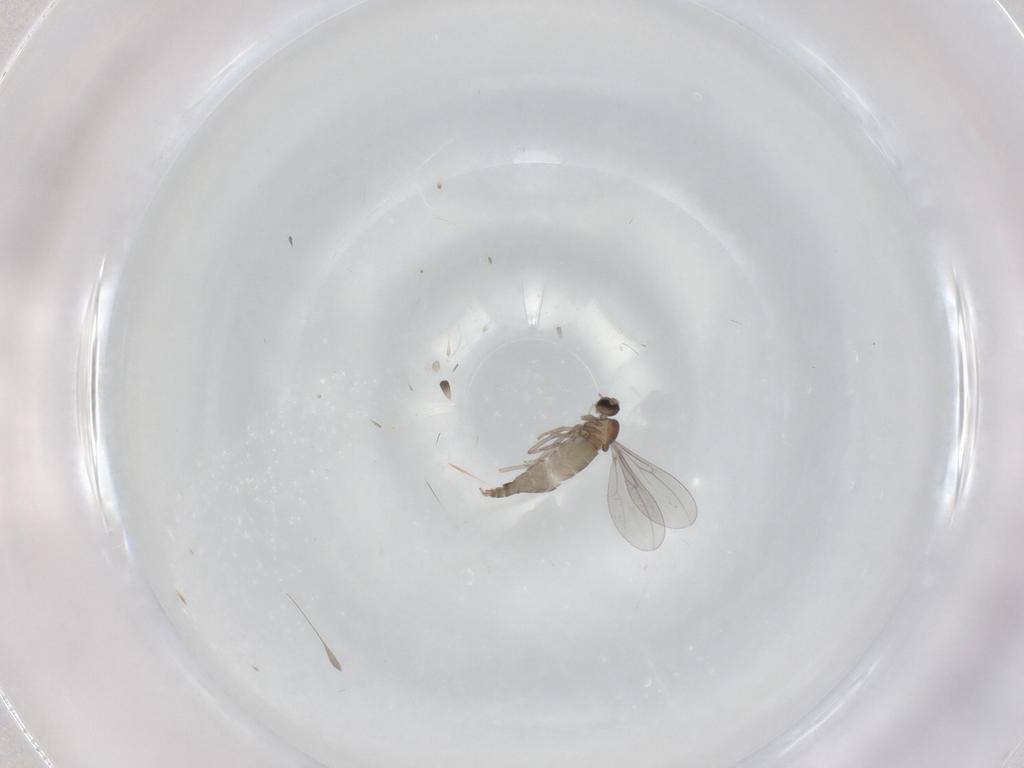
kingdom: Animalia
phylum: Arthropoda
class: Insecta
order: Diptera
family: Cecidomyiidae
